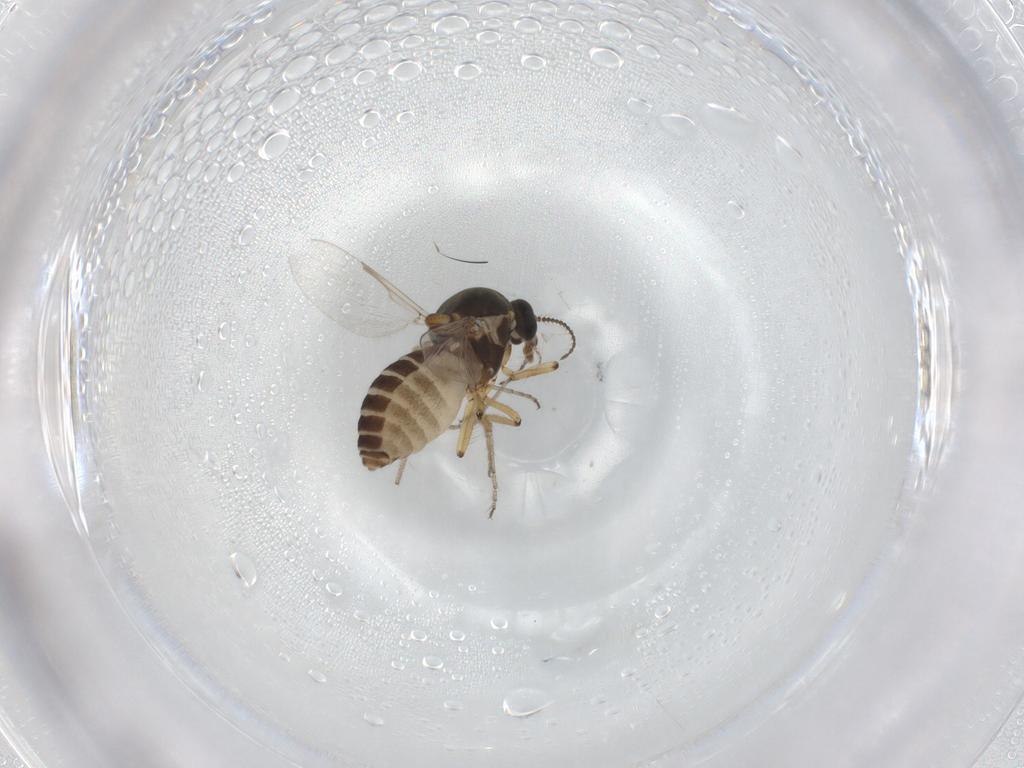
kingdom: Animalia
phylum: Arthropoda
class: Insecta
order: Diptera
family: Ceratopogonidae
